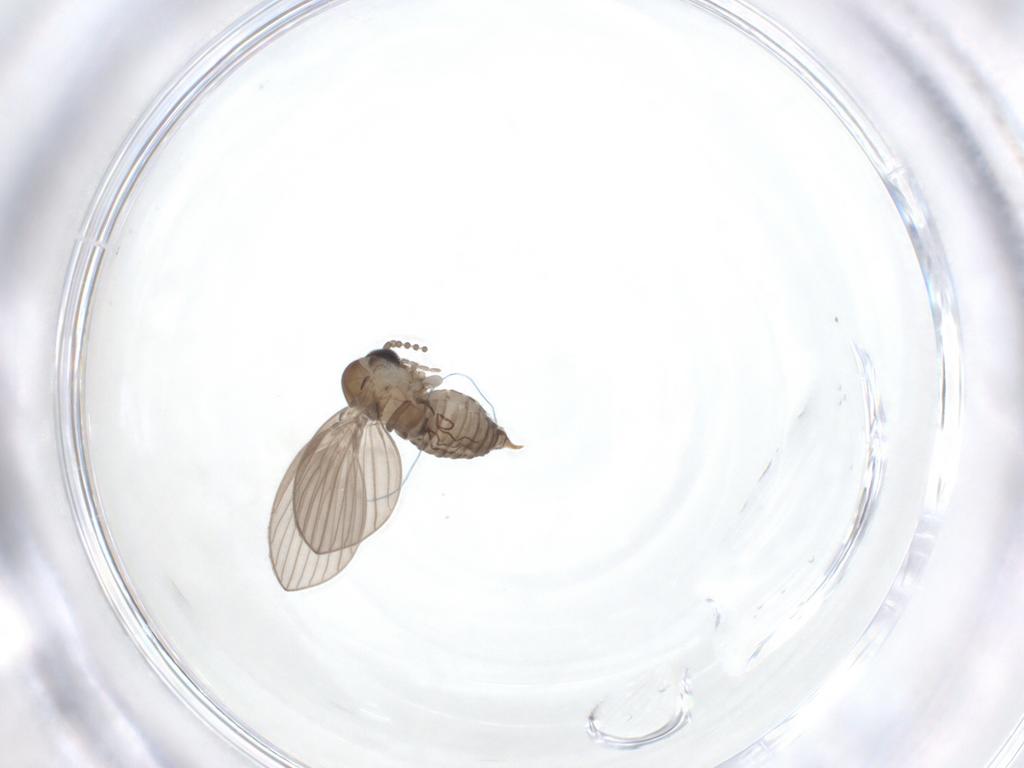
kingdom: Animalia
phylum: Arthropoda
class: Insecta
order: Diptera
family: Psychodidae
